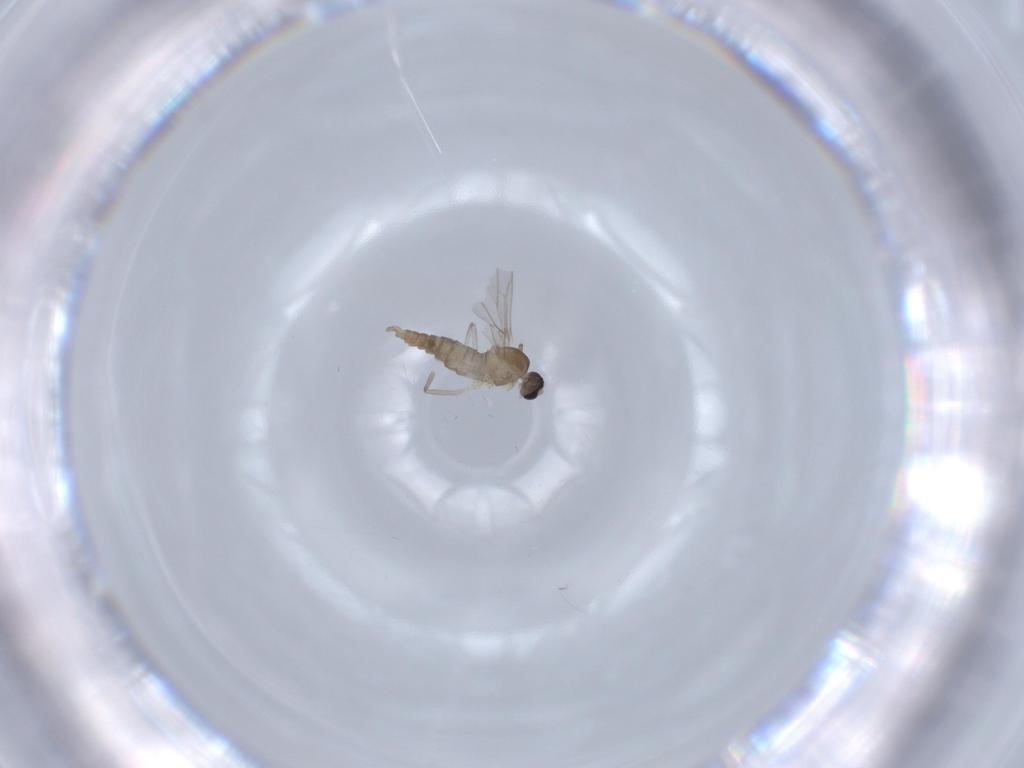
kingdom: Animalia
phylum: Arthropoda
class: Insecta
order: Diptera
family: Cecidomyiidae
